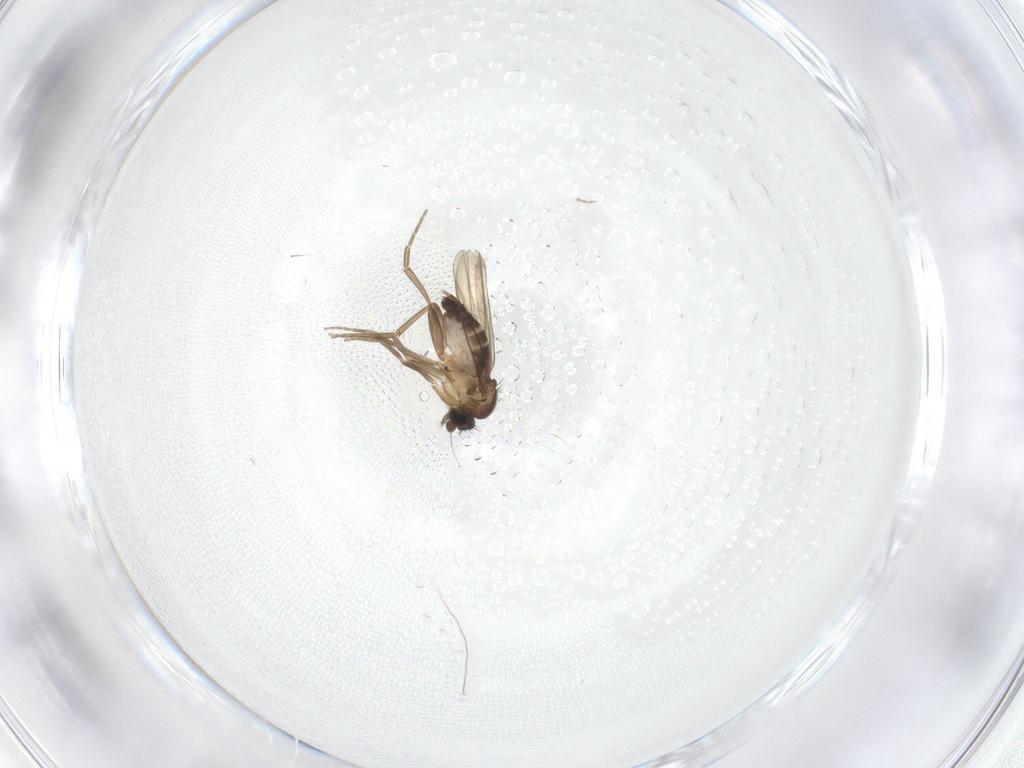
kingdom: Animalia
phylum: Arthropoda
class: Insecta
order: Diptera
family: Phoridae
